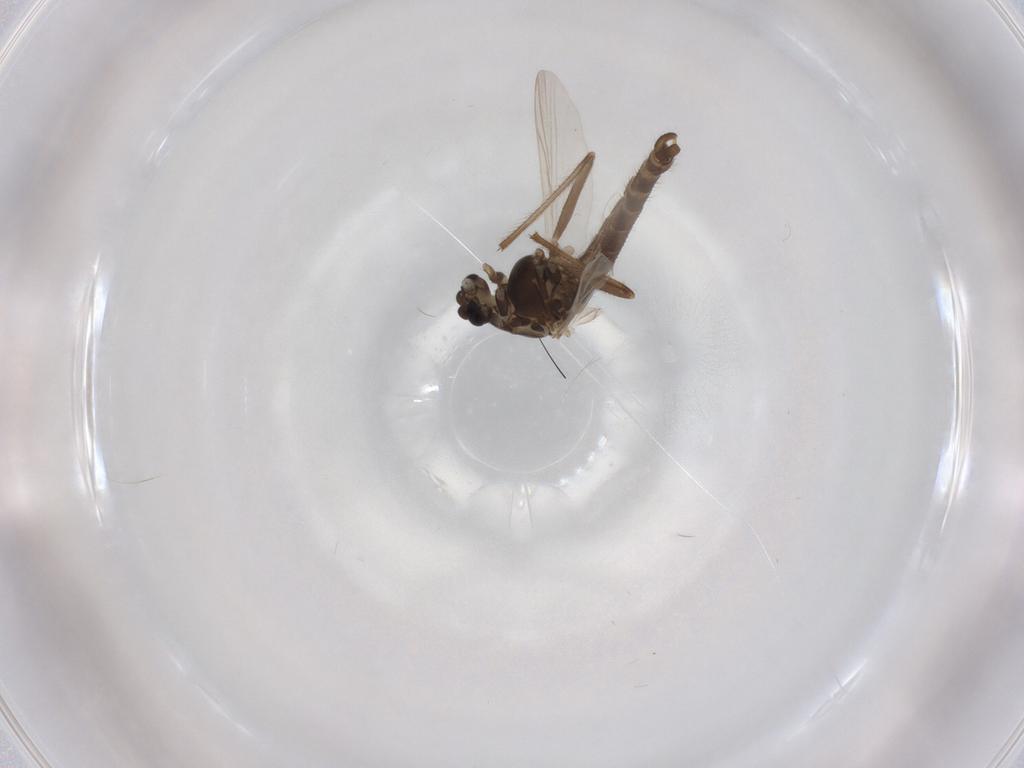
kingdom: Animalia
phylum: Arthropoda
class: Insecta
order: Diptera
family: Chironomidae
